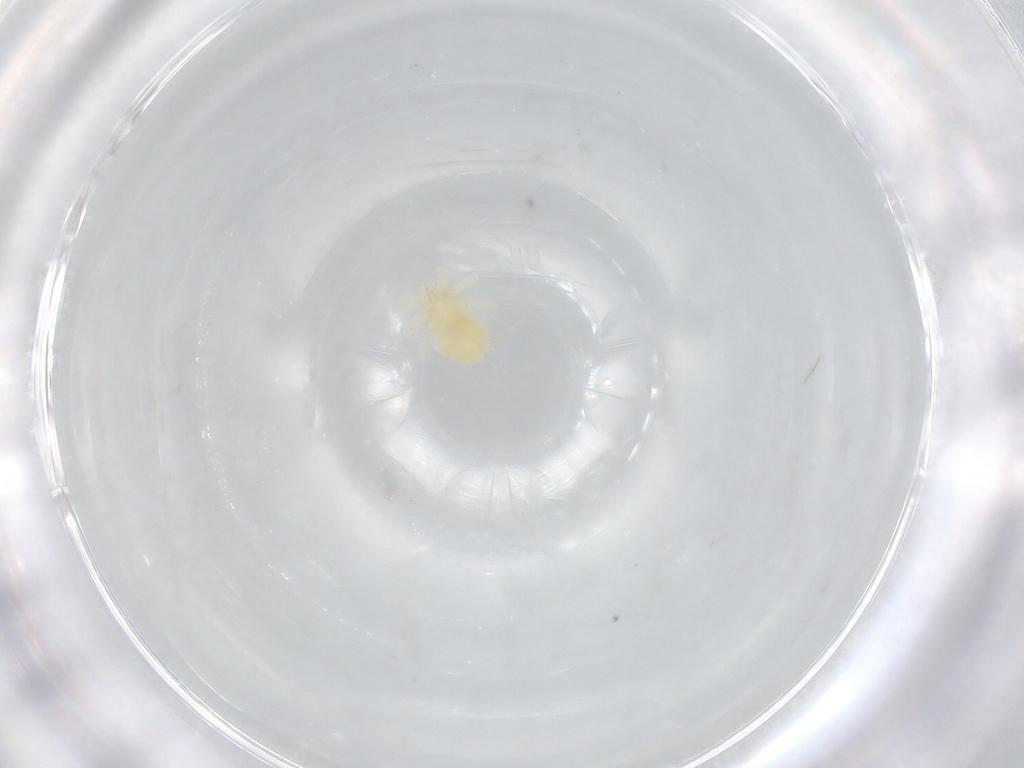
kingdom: Animalia
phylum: Arthropoda
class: Arachnida
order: Trombidiformes
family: Anystidae
